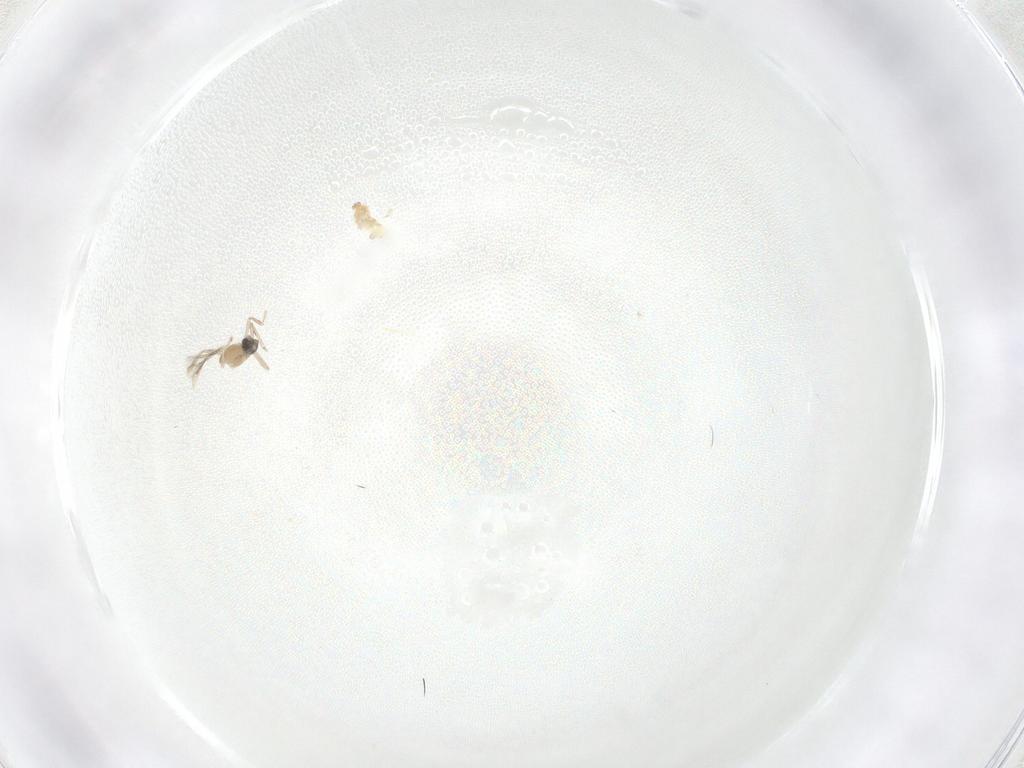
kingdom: Animalia
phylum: Arthropoda
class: Insecta
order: Diptera
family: Cecidomyiidae
